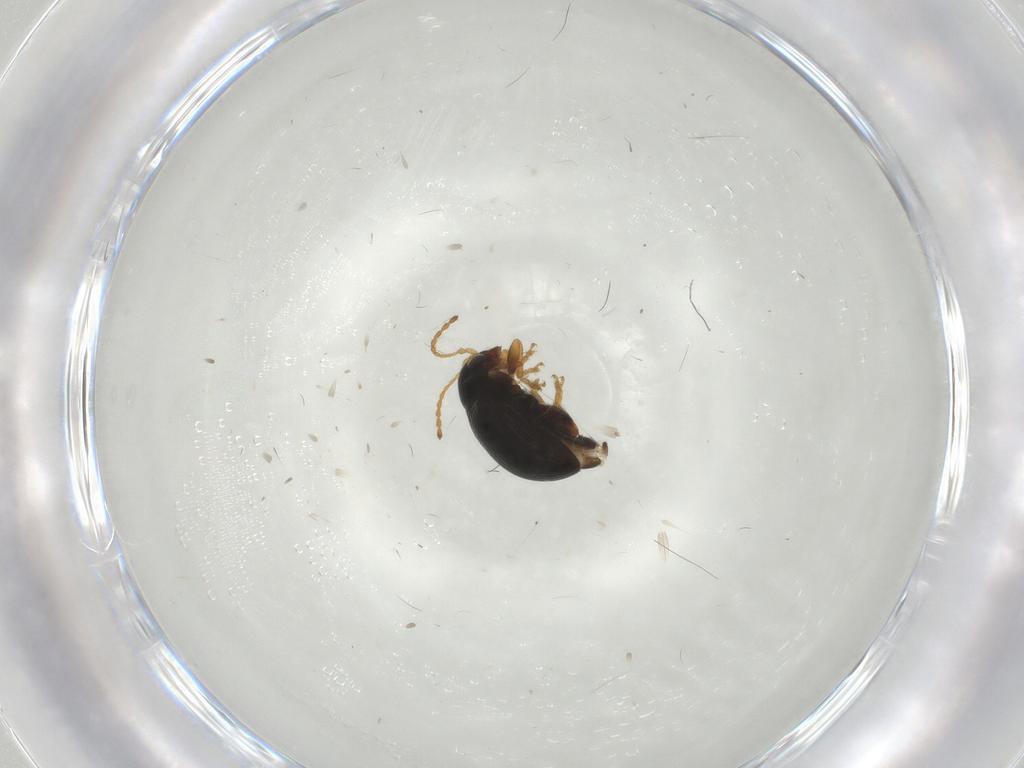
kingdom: Animalia
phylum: Arthropoda
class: Insecta
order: Coleoptera
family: Chrysomelidae
